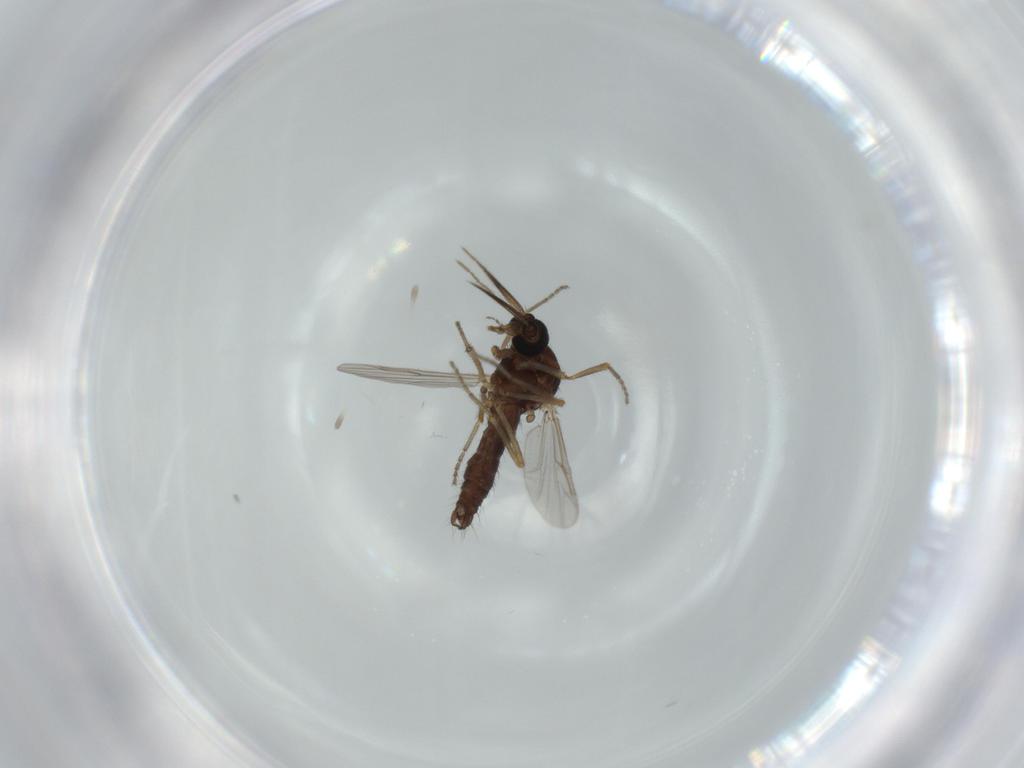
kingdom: Animalia
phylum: Arthropoda
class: Insecta
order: Diptera
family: Ceratopogonidae
